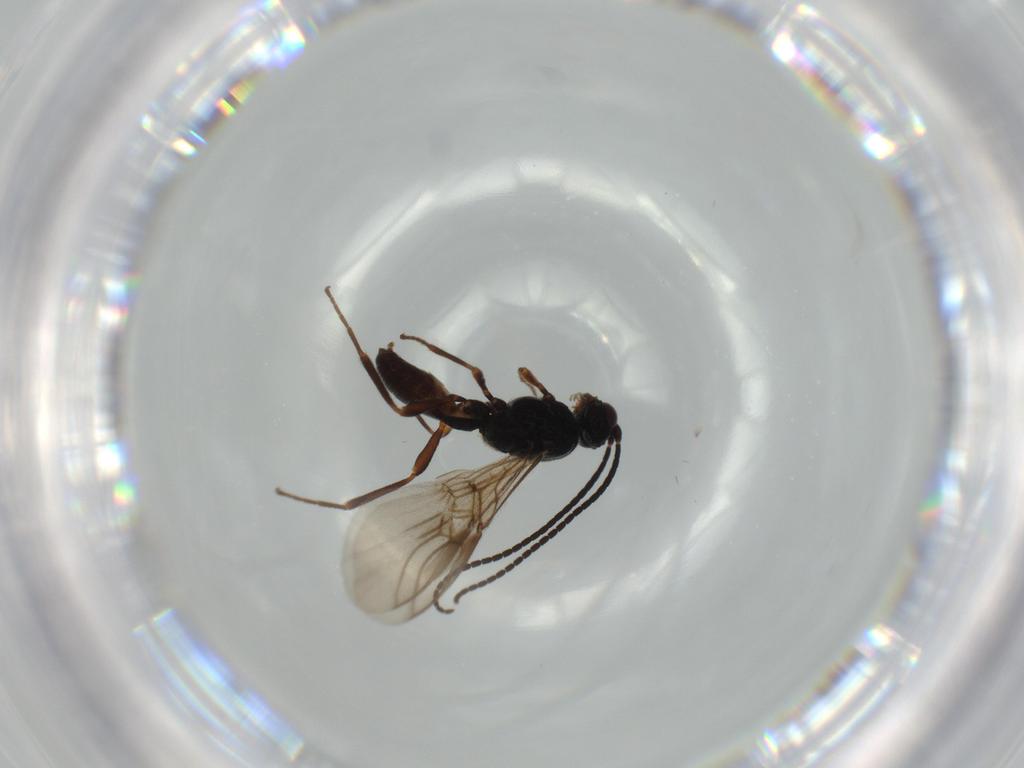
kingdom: Animalia
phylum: Arthropoda
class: Insecta
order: Hymenoptera
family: Braconidae
